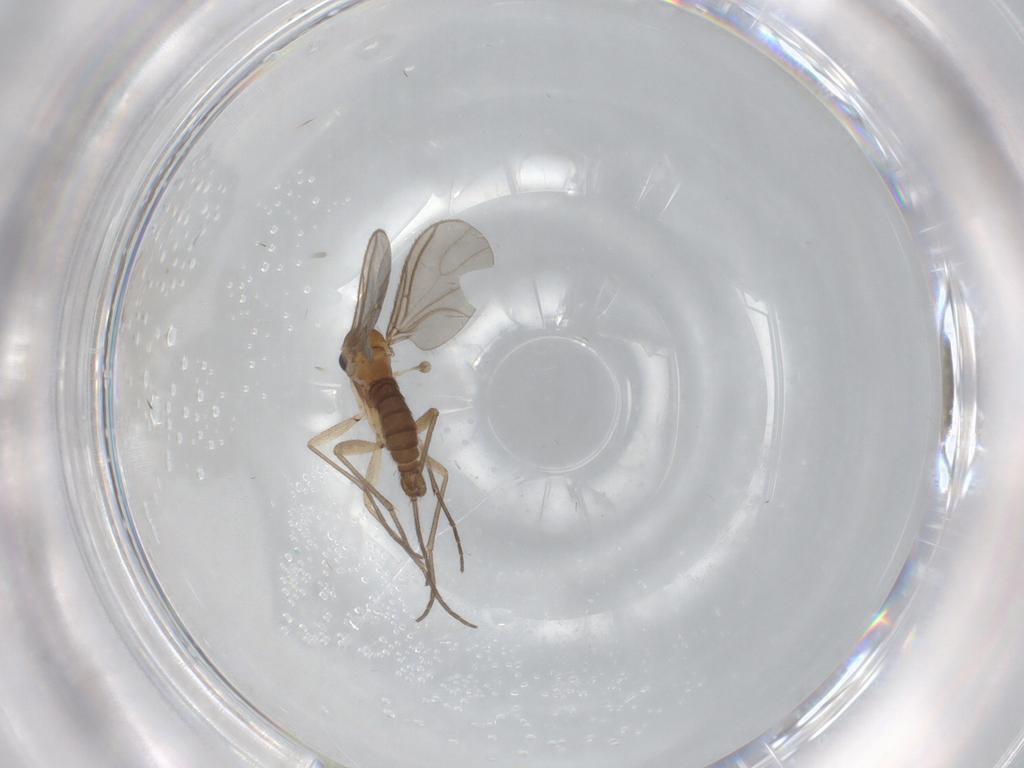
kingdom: Animalia
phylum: Arthropoda
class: Insecta
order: Diptera
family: Sciaridae
